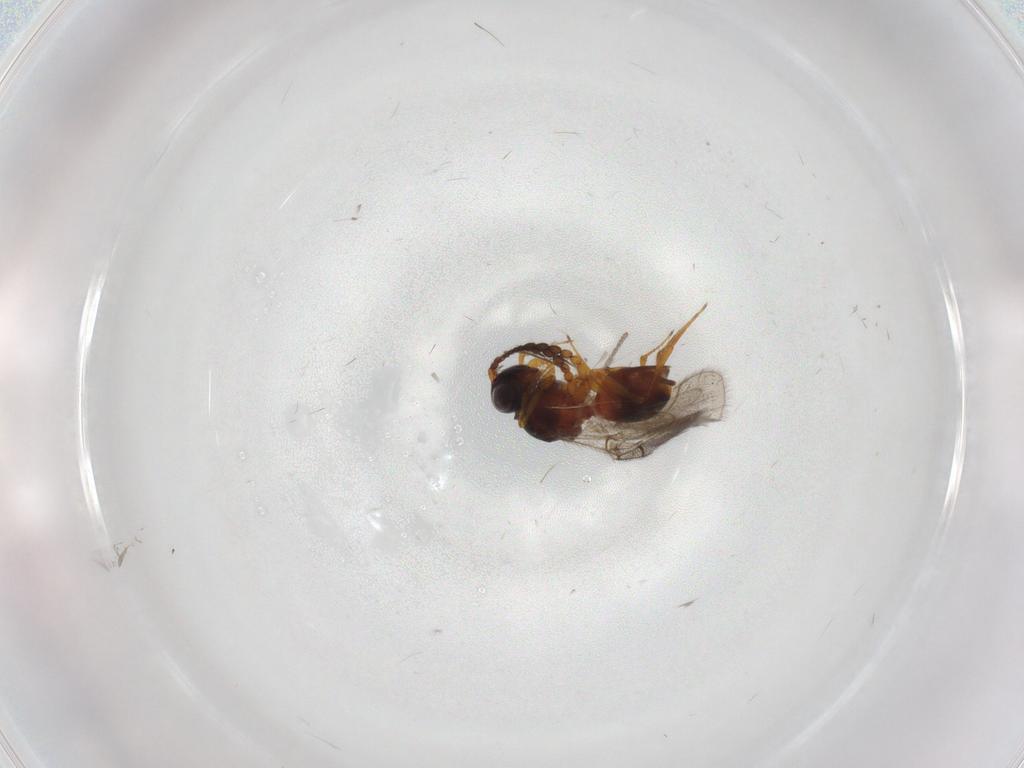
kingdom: Animalia
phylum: Arthropoda
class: Insecta
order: Hymenoptera
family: Figitidae
